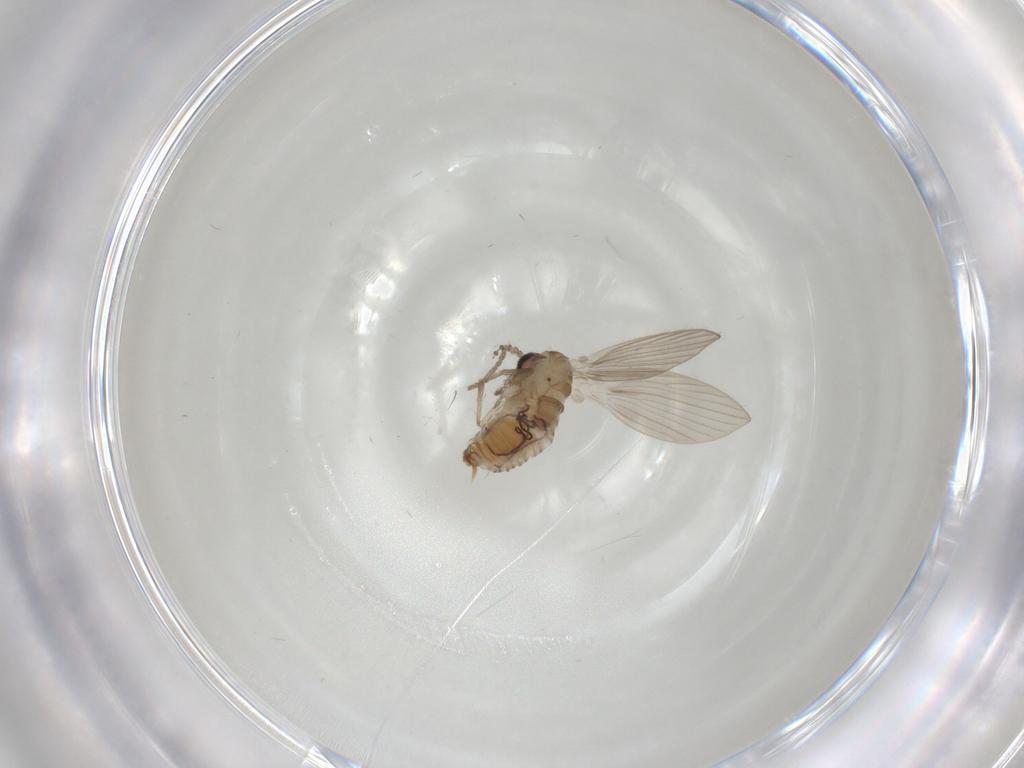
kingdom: Animalia
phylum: Arthropoda
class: Insecta
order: Diptera
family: Psychodidae
